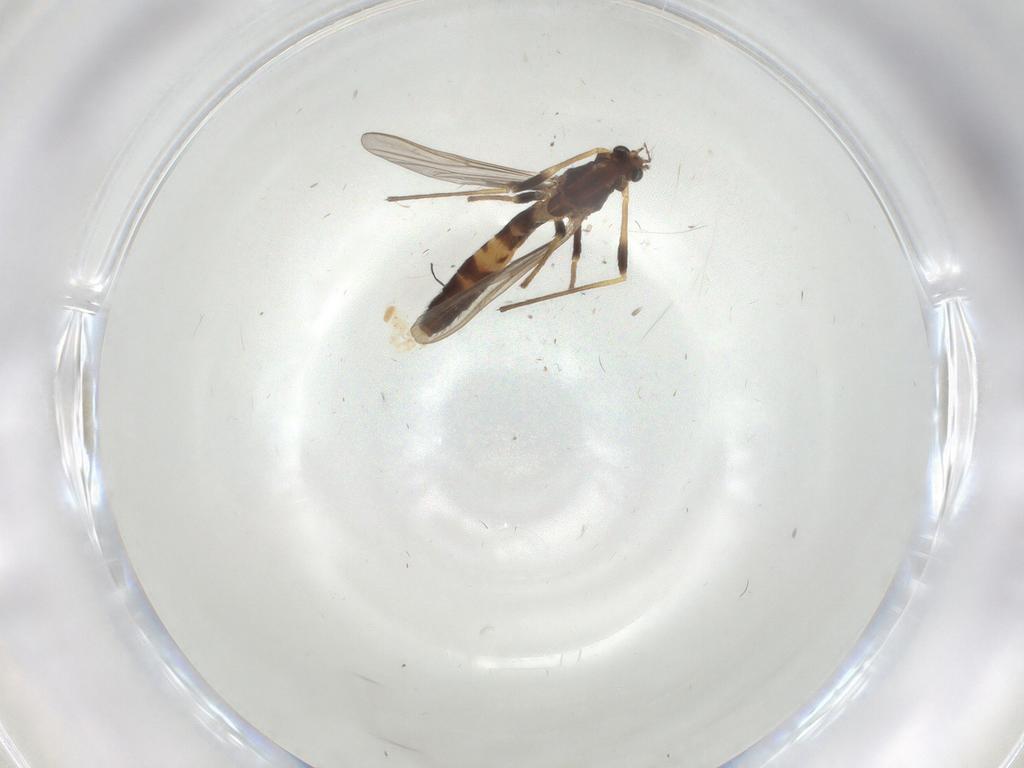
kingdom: Animalia
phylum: Arthropoda
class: Insecta
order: Diptera
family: Cecidomyiidae
